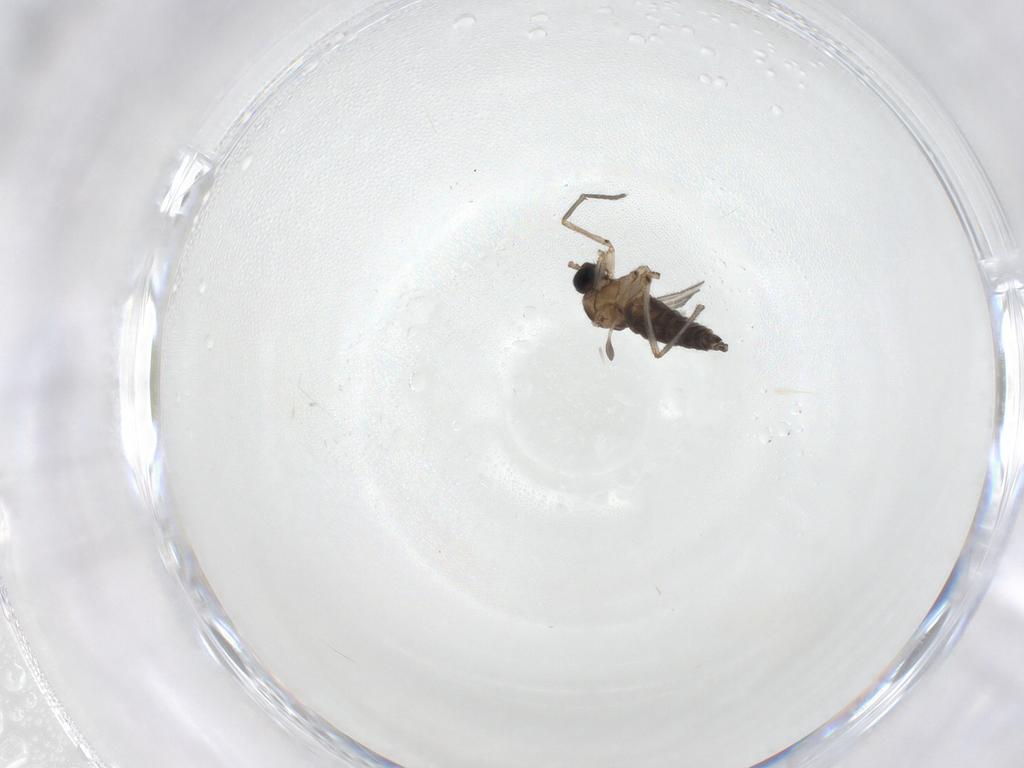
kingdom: Animalia
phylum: Arthropoda
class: Insecta
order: Diptera
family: Sciaridae
